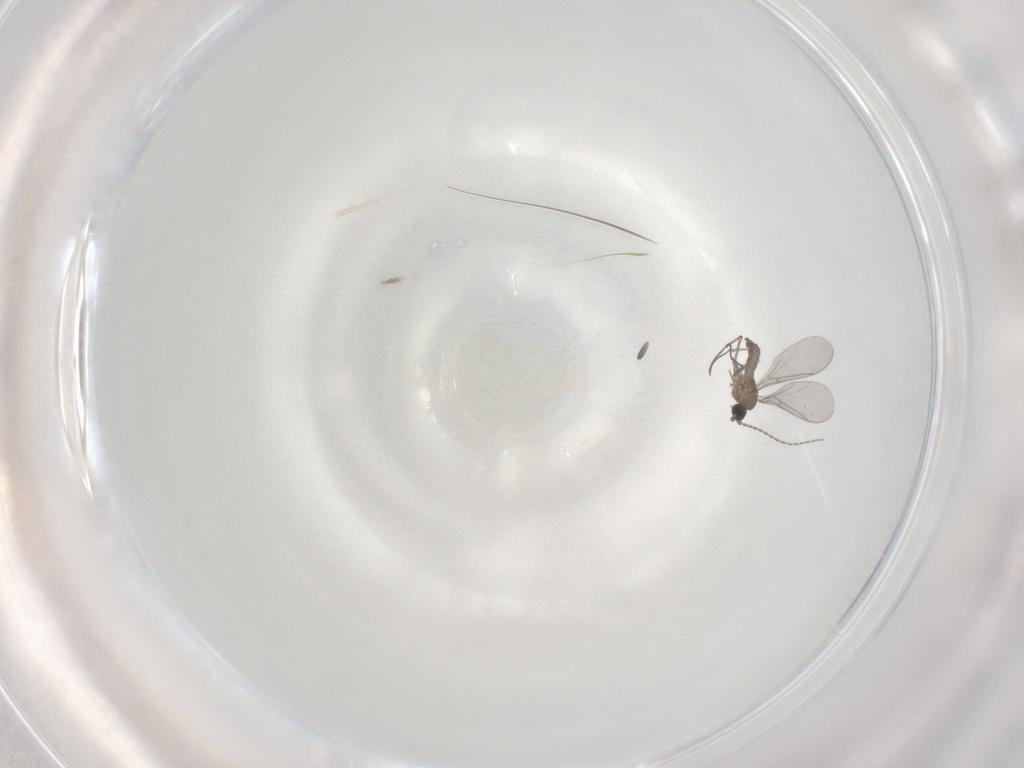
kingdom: Animalia
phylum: Arthropoda
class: Insecta
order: Diptera
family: Sciaridae
